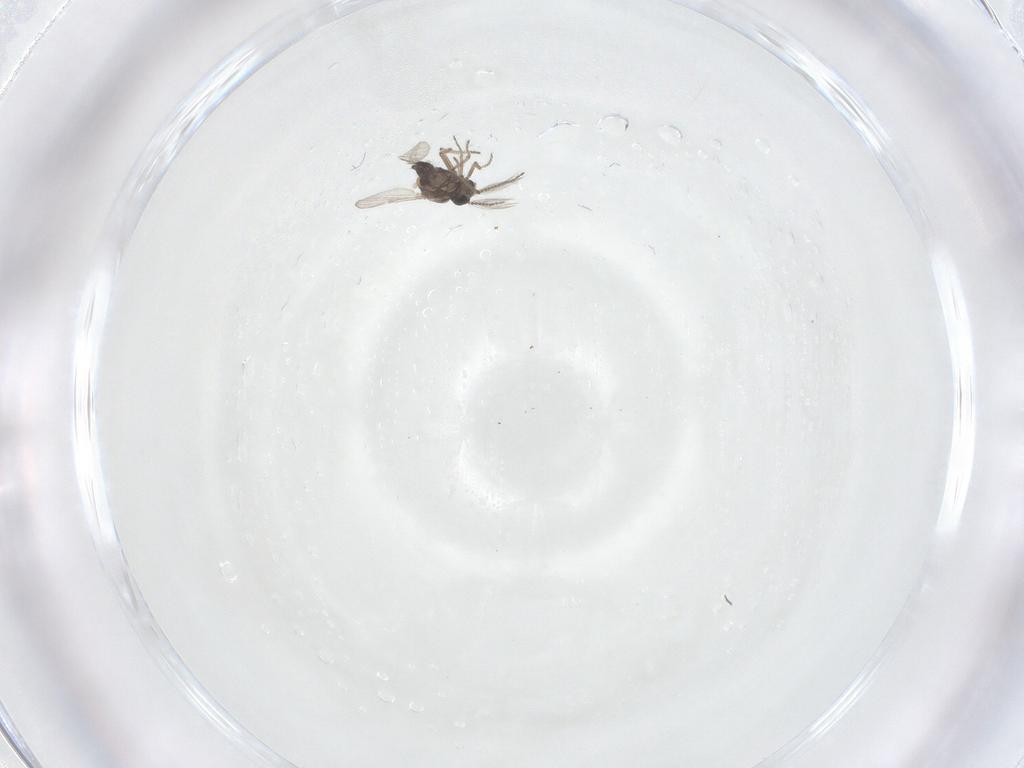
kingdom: Animalia
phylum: Arthropoda
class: Insecta
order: Diptera
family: Ceratopogonidae
